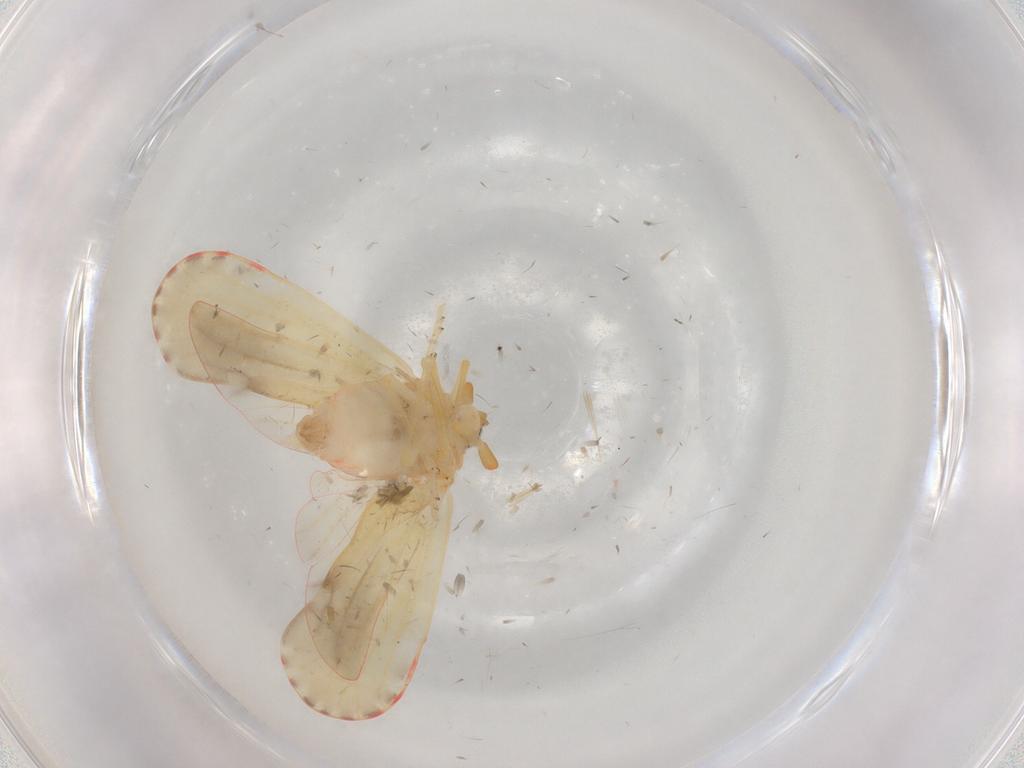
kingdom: Animalia
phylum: Arthropoda
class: Insecta
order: Hemiptera
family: Derbidae
